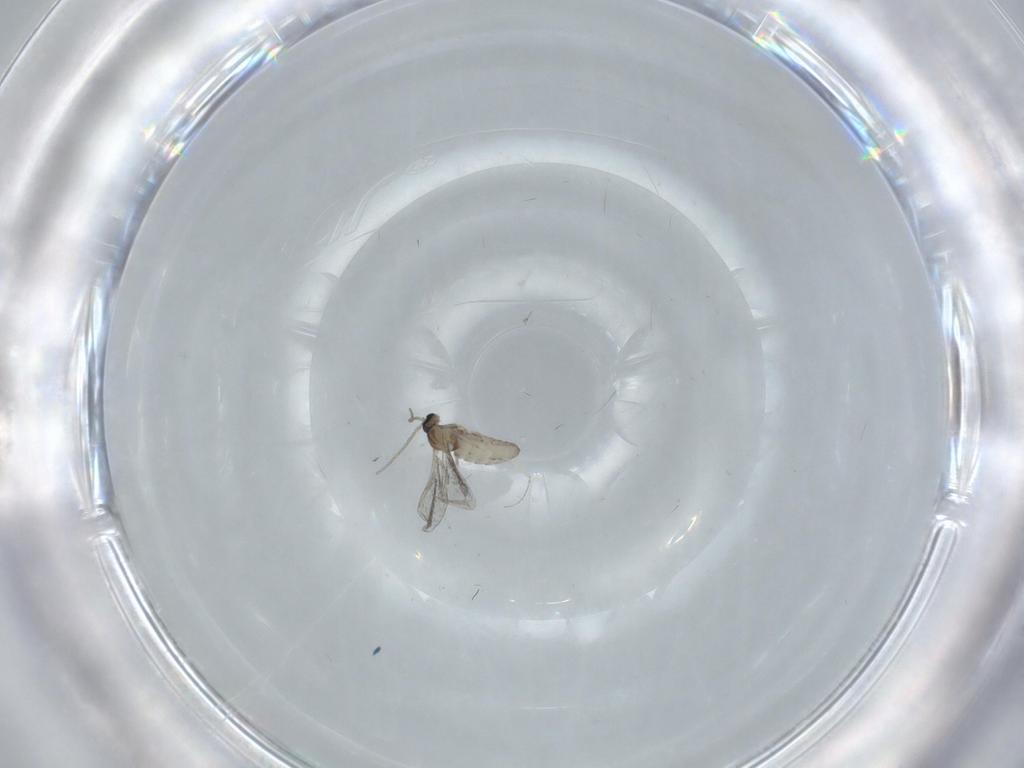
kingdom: Animalia
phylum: Arthropoda
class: Insecta
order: Diptera
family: Cecidomyiidae
